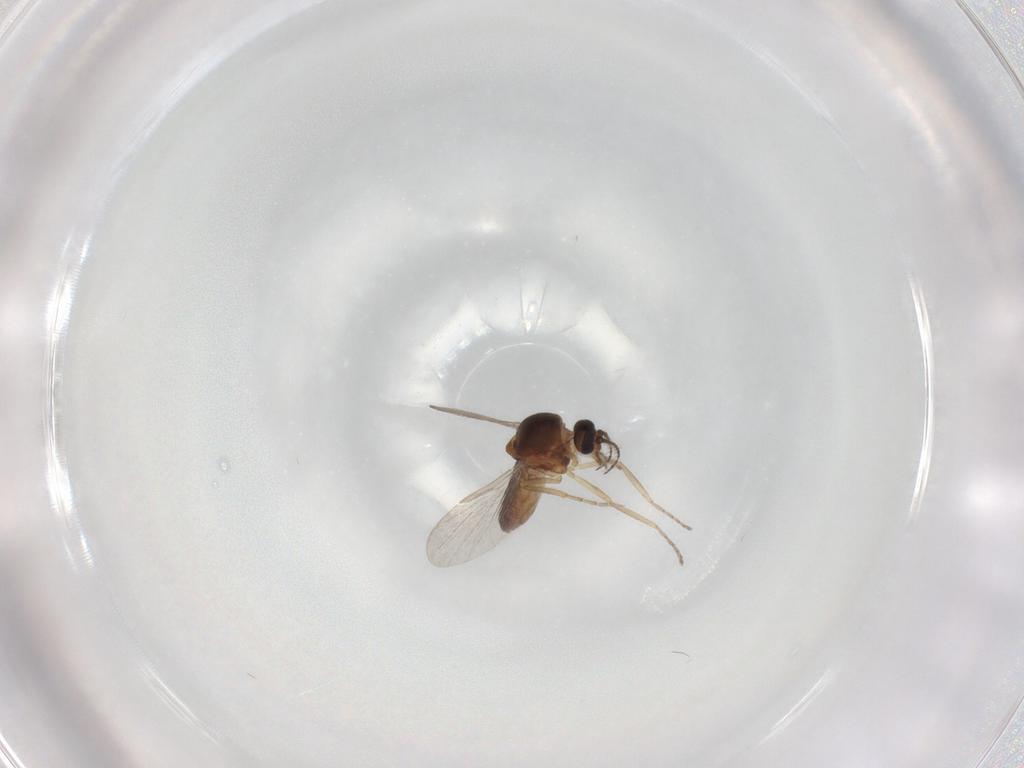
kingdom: Animalia
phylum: Arthropoda
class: Insecta
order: Diptera
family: Ceratopogonidae
